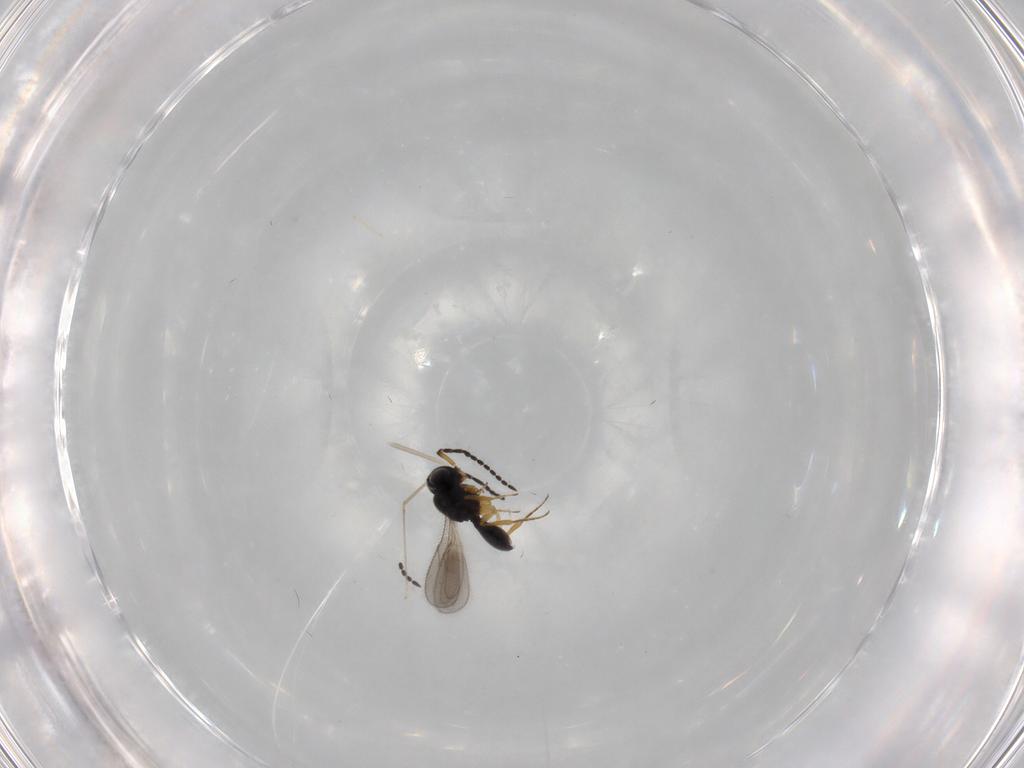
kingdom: Animalia
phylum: Arthropoda
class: Insecta
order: Hymenoptera
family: Scelionidae
